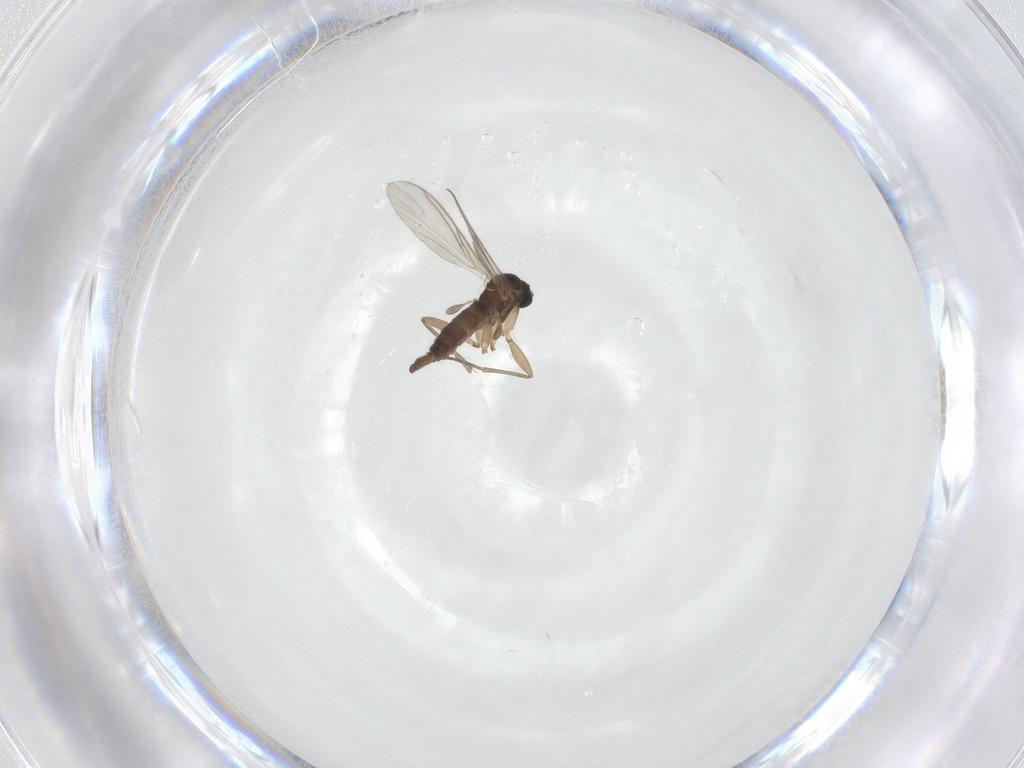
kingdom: Animalia
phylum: Arthropoda
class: Insecta
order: Diptera
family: Sciaridae
